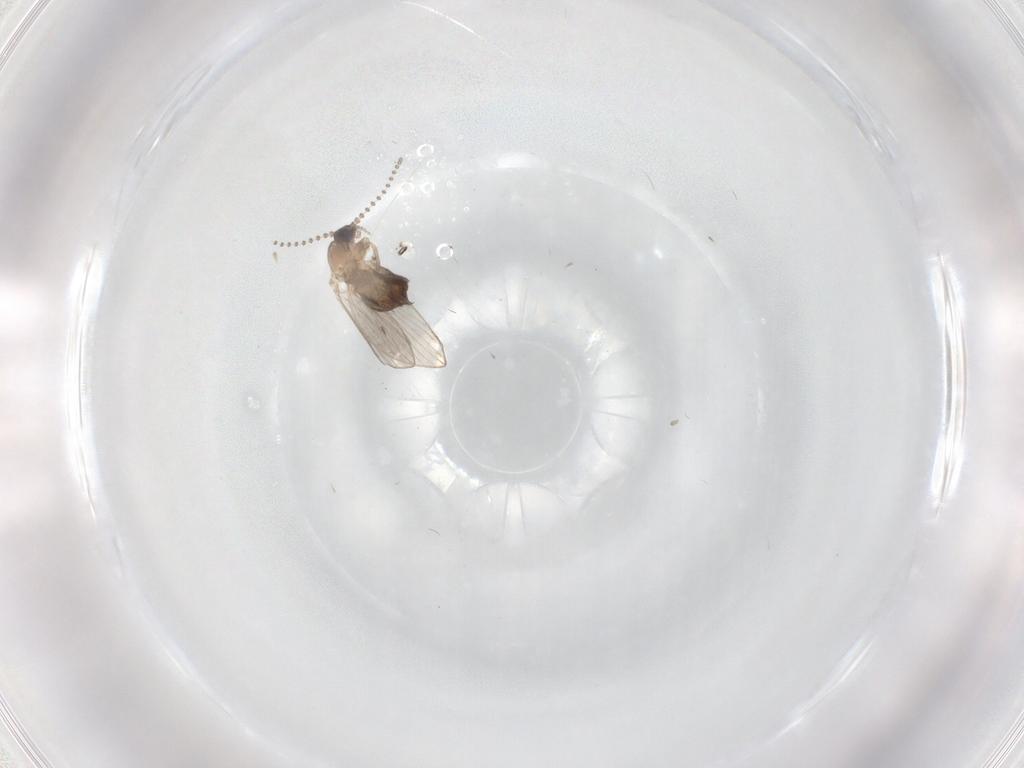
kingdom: Animalia
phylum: Arthropoda
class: Insecta
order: Diptera
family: Psychodidae
